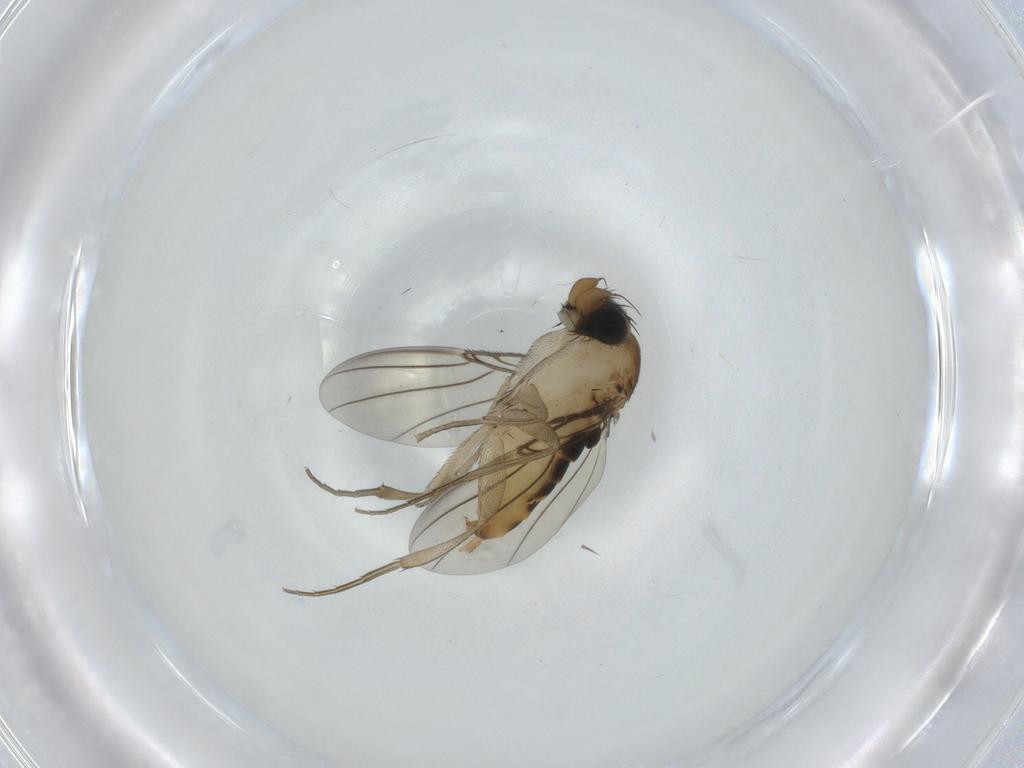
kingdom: Animalia
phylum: Arthropoda
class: Insecta
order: Diptera
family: Phoridae
